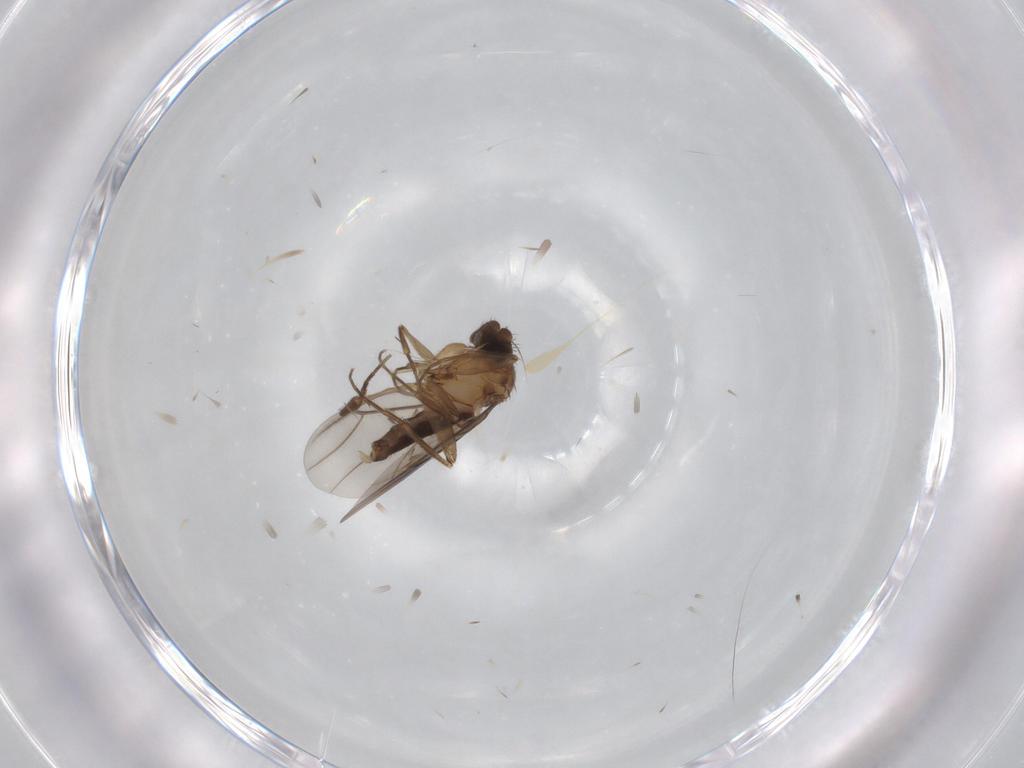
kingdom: Animalia
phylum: Arthropoda
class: Insecta
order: Diptera
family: Phoridae
